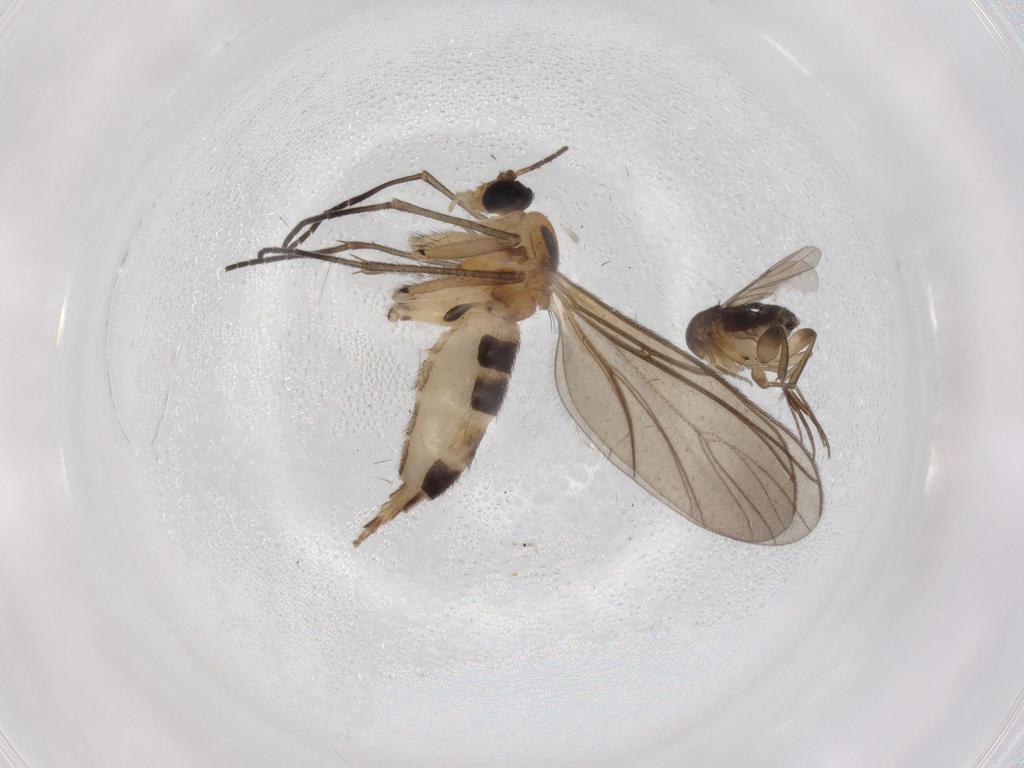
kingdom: Animalia
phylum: Arthropoda
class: Insecta
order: Diptera
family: Phoridae
